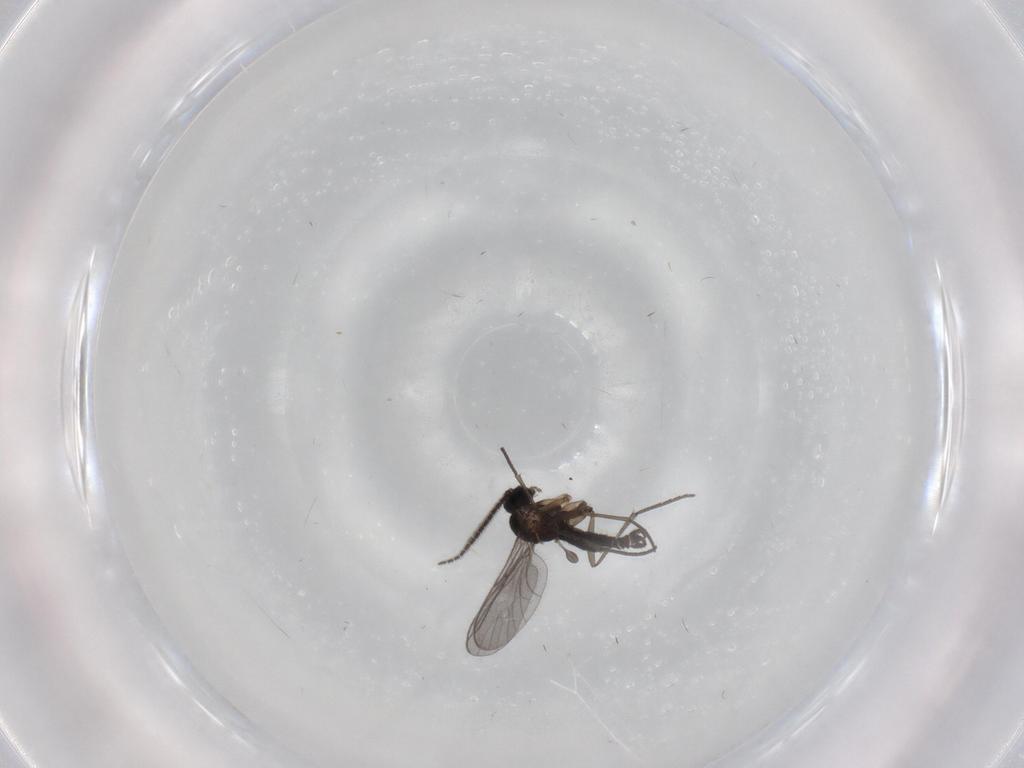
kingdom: Animalia
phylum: Arthropoda
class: Insecta
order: Diptera
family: Sciaridae
